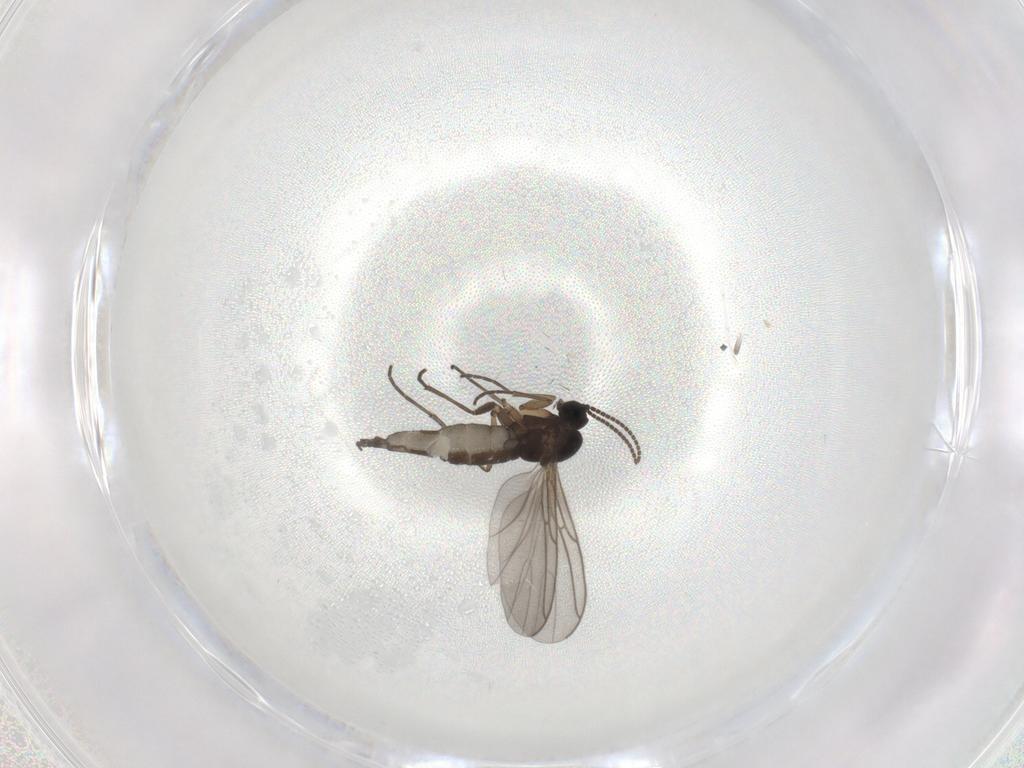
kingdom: Animalia
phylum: Arthropoda
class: Insecta
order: Diptera
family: Sciaridae
